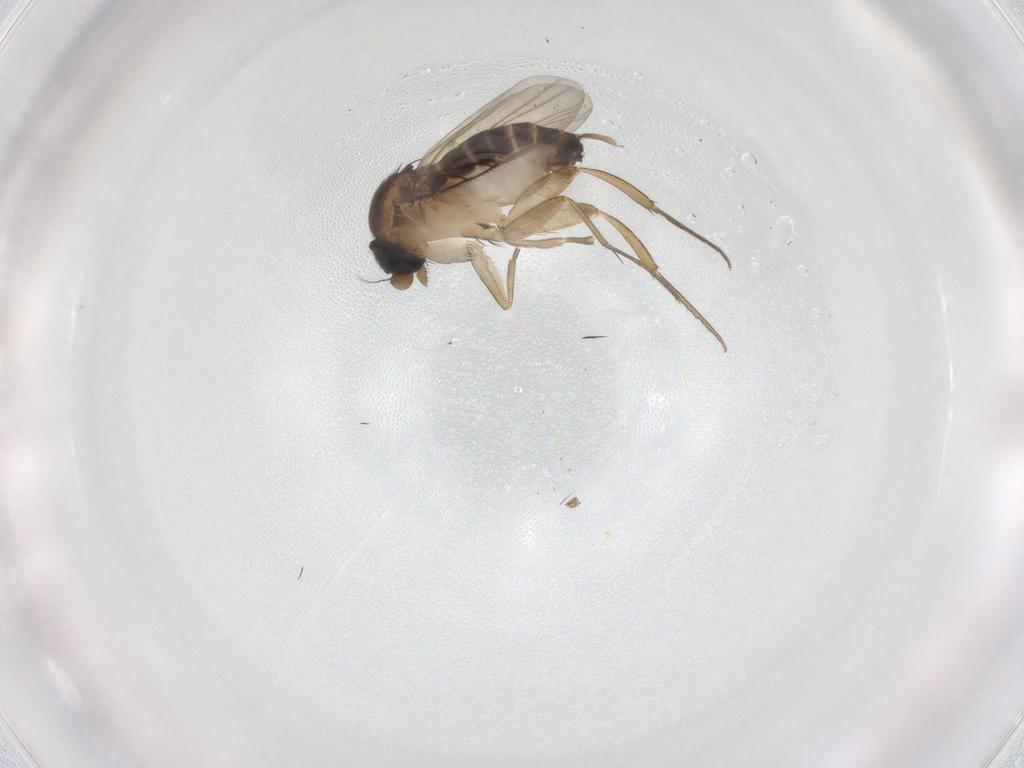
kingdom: Animalia
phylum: Arthropoda
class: Insecta
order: Diptera
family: Phoridae
